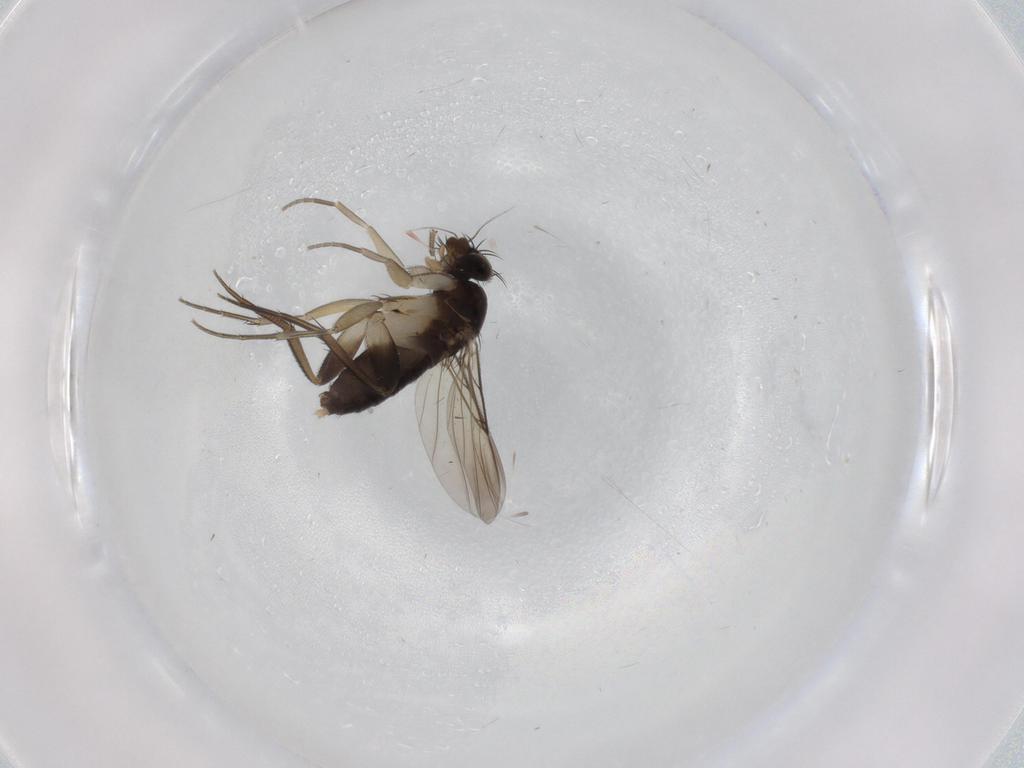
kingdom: Animalia
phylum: Arthropoda
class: Insecta
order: Diptera
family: Phoridae
